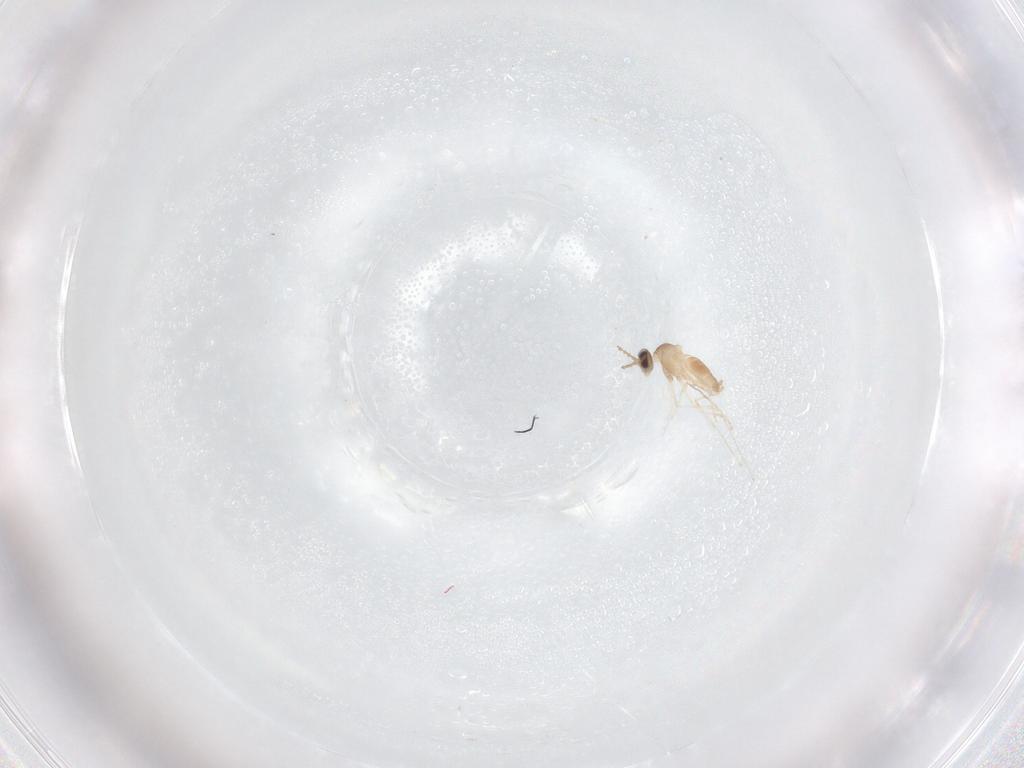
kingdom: Animalia
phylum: Arthropoda
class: Insecta
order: Diptera
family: Cecidomyiidae
